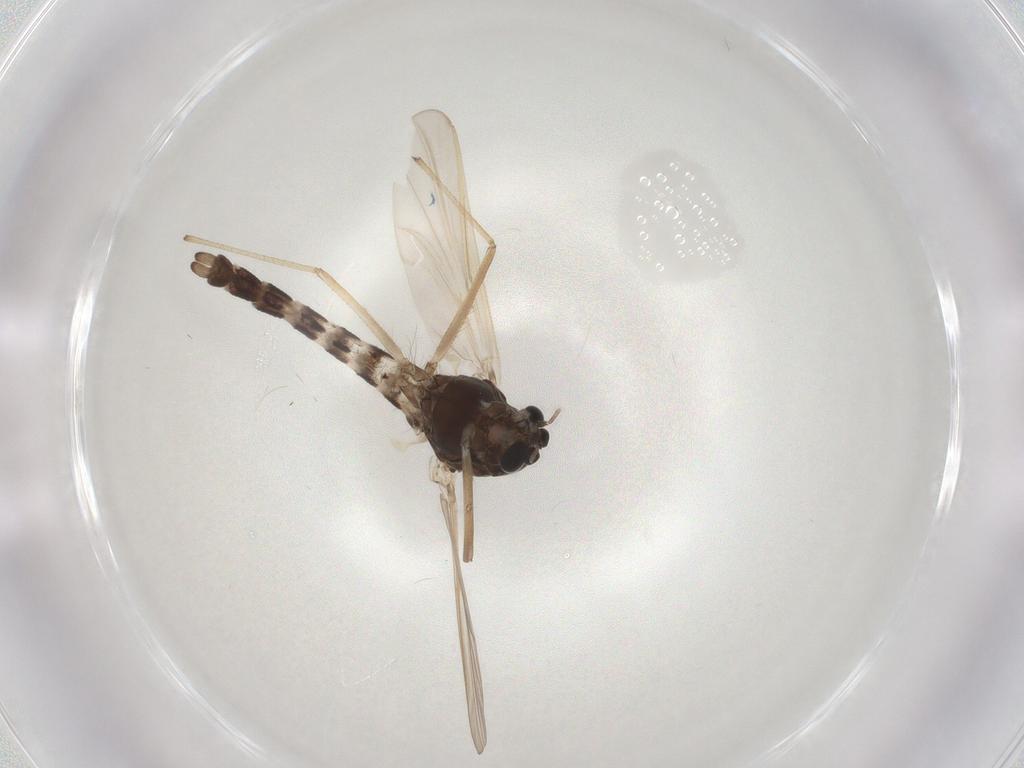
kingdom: Animalia
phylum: Arthropoda
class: Insecta
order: Diptera
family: Chironomidae
